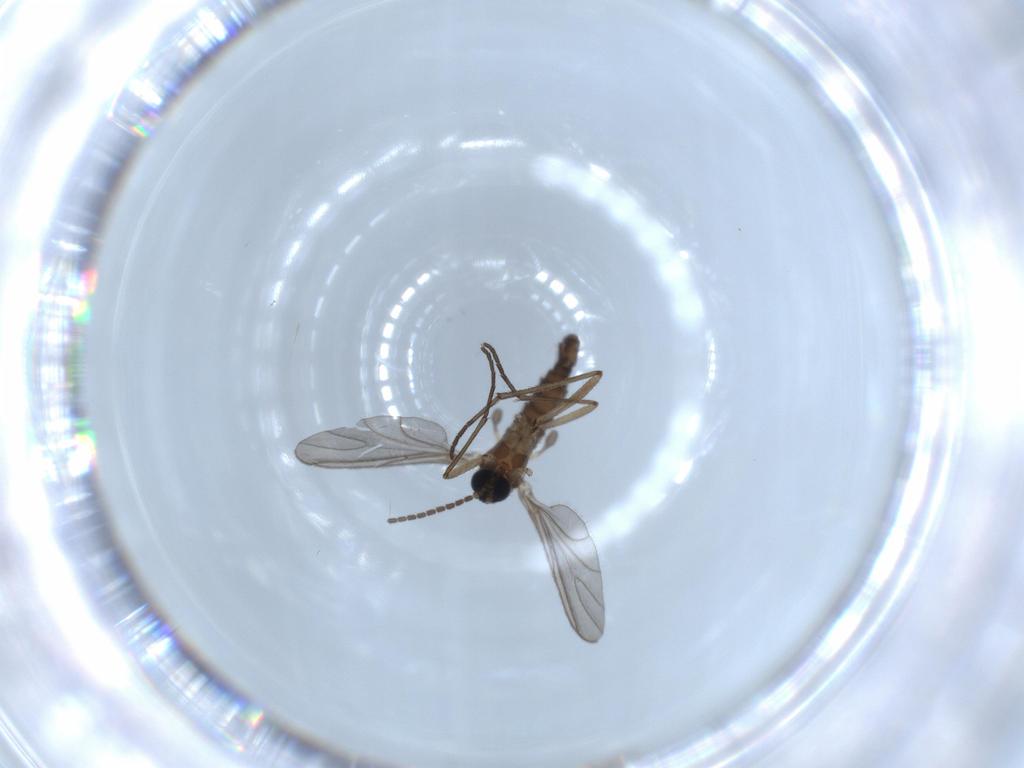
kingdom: Animalia
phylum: Arthropoda
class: Insecta
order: Diptera
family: Sciaridae
